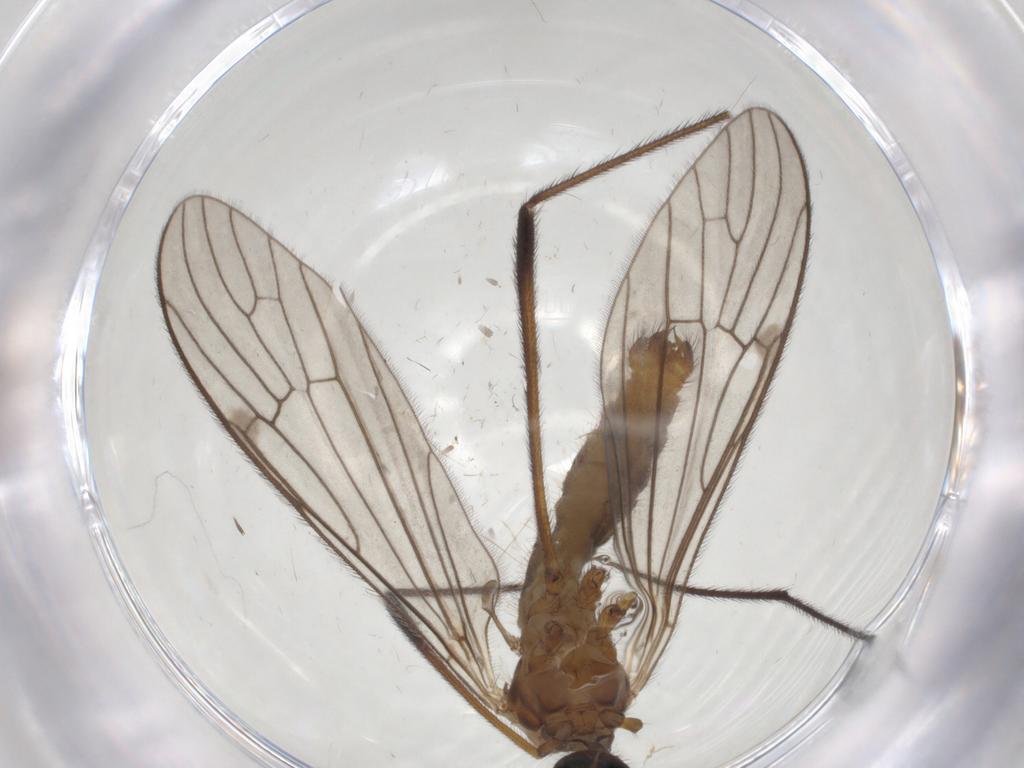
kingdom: Animalia
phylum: Arthropoda
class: Insecta
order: Diptera
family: Limoniidae
